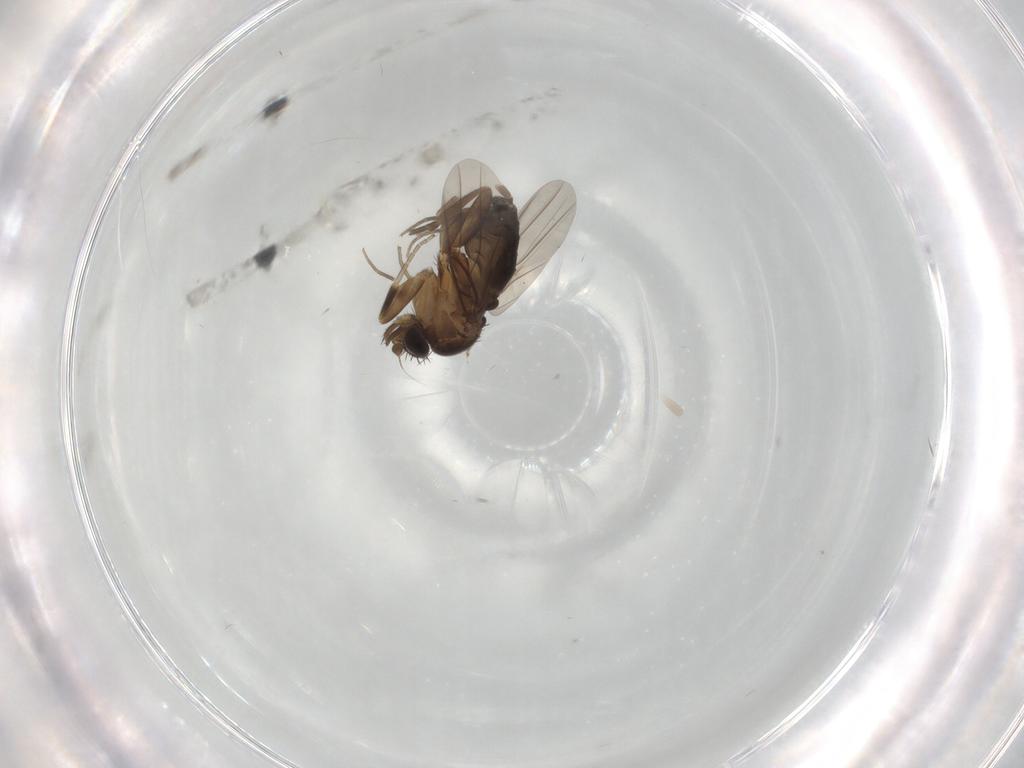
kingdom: Animalia
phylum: Arthropoda
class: Insecta
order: Diptera
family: Phoridae
